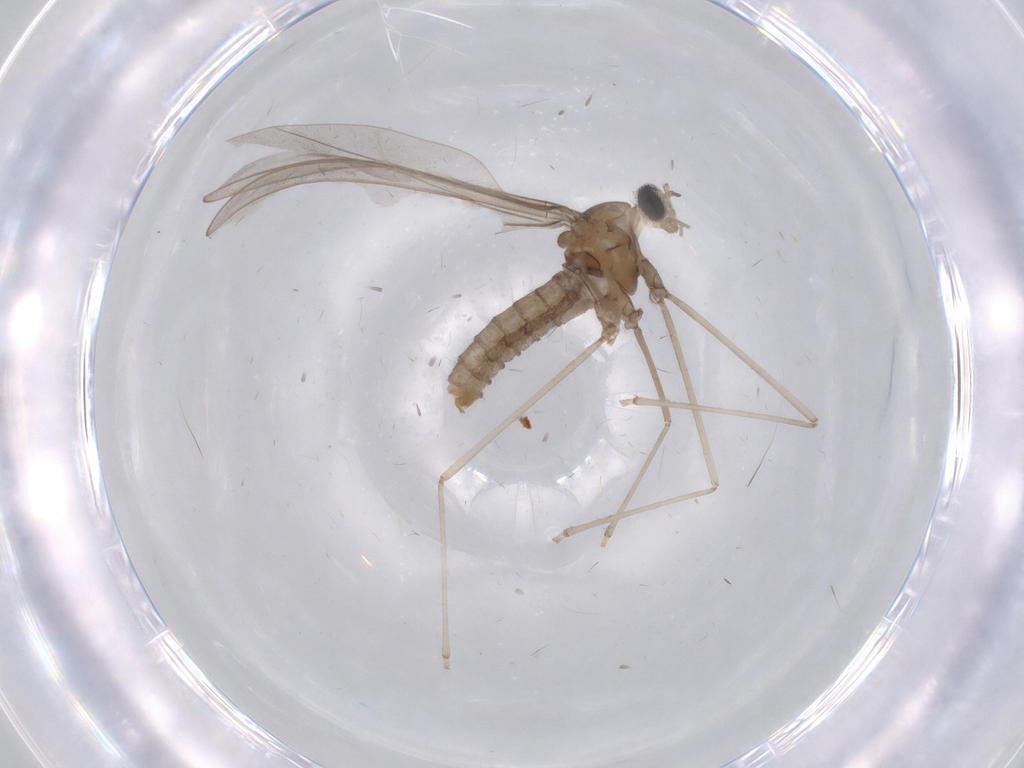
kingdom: Animalia
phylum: Arthropoda
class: Insecta
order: Diptera
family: Cecidomyiidae
